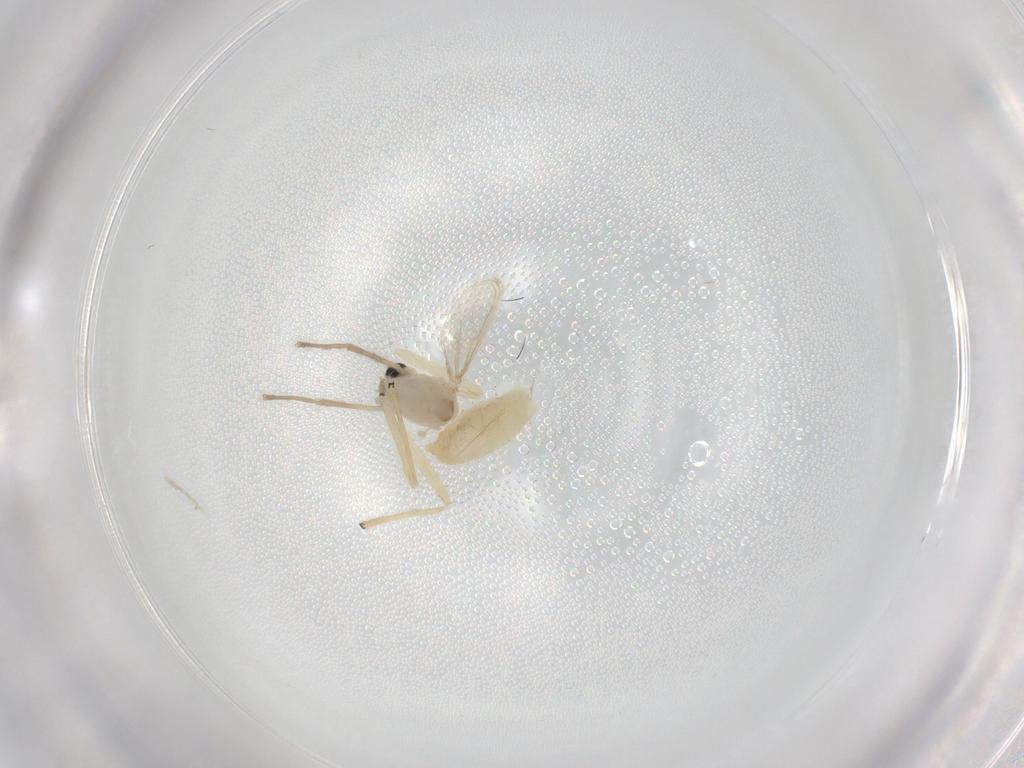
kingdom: Animalia
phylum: Arthropoda
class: Insecta
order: Diptera
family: Chironomidae
